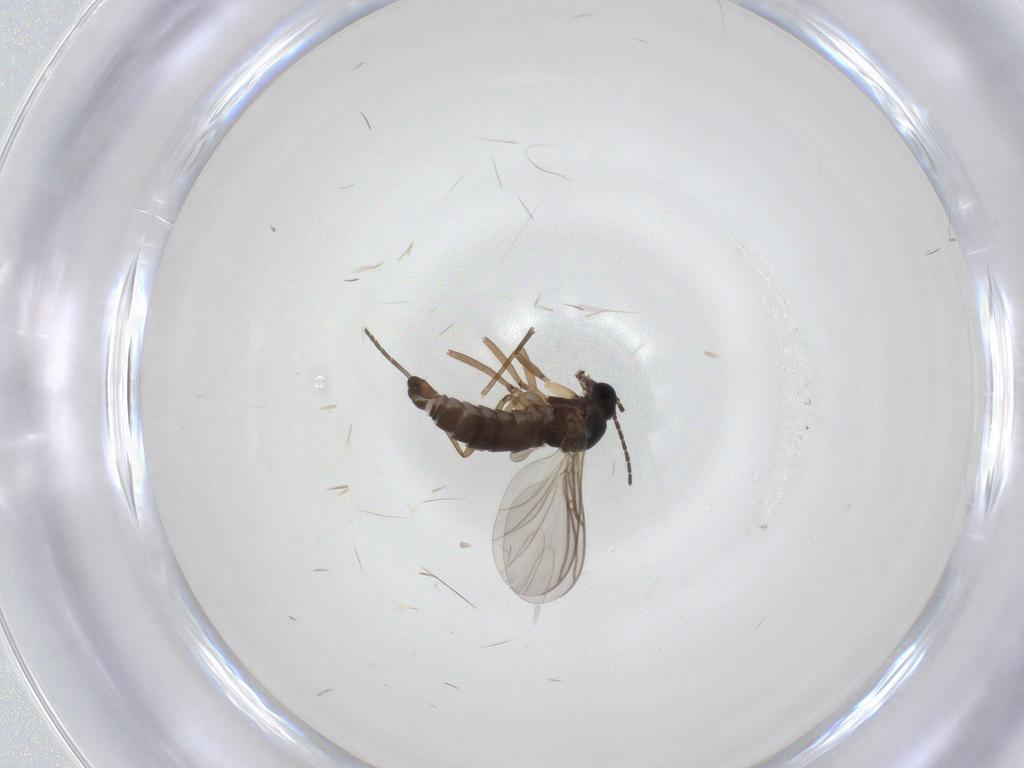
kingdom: Animalia
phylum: Arthropoda
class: Insecta
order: Diptera
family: Sciaridae
